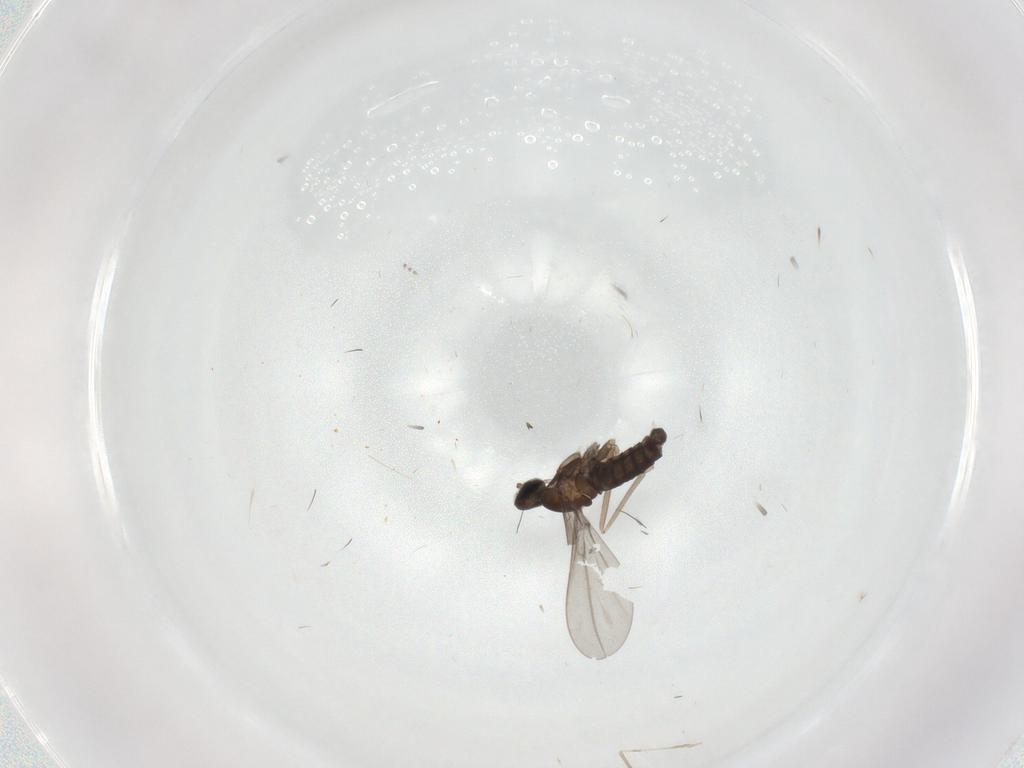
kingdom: Animalia
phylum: Arthropoda
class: Insecta
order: Diptera
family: Cecidomyiidae
